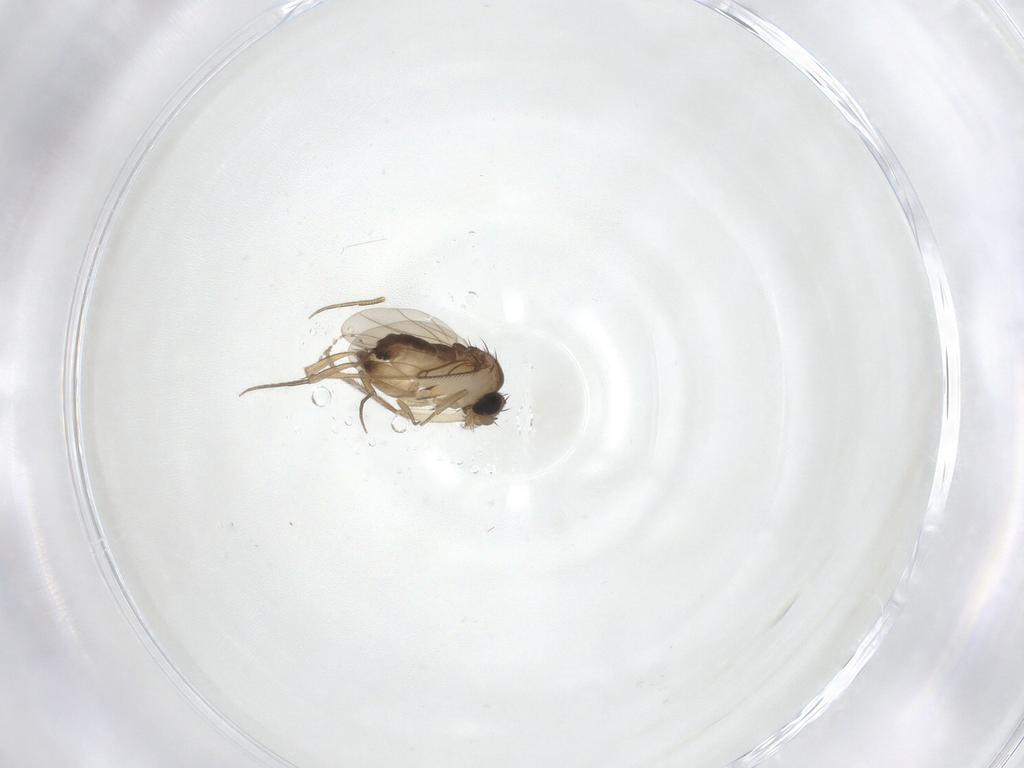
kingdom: Animalia
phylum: Arthropoda
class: Insecta
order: Diptera
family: Phoridae
